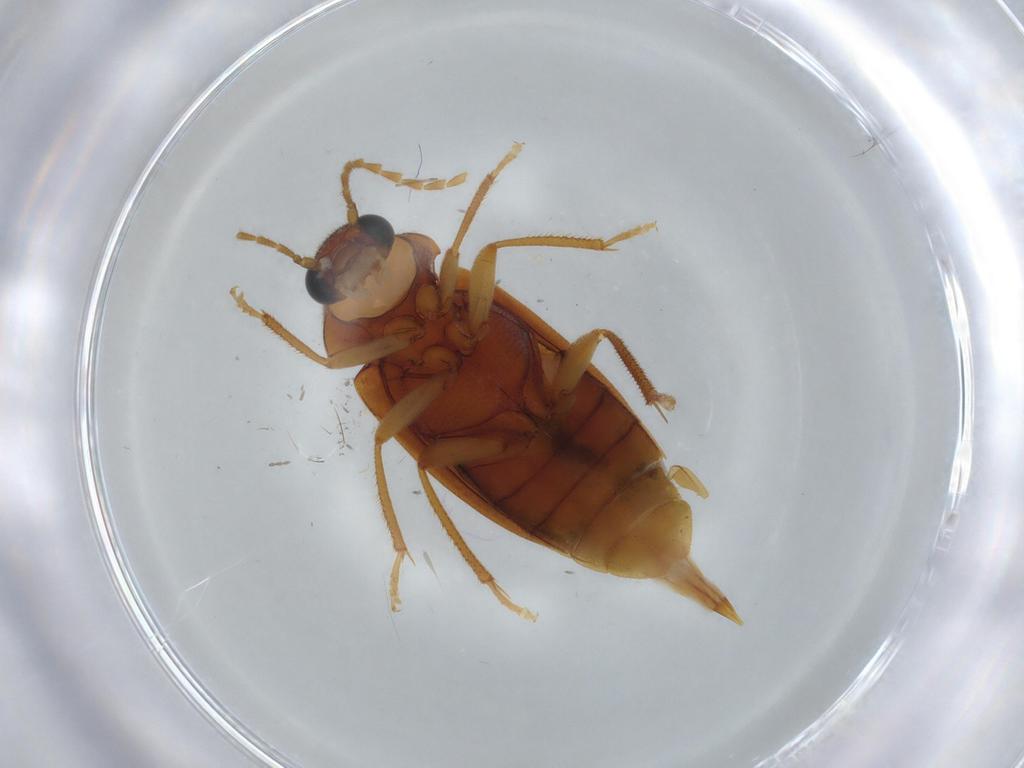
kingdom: Animalia
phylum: Arthropoda
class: Insecta
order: Coleoptera
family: Ptilodactylidae
